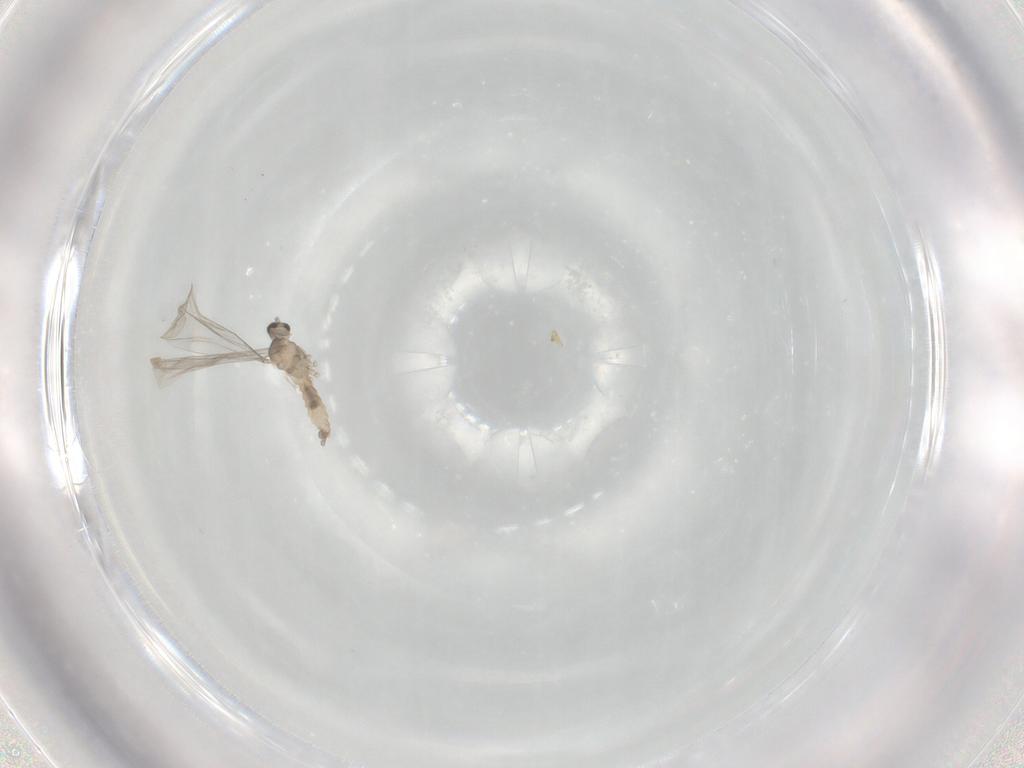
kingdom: Animalia
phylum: Arthropoda
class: Insecta
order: Diptera
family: Cecidomyiidae
